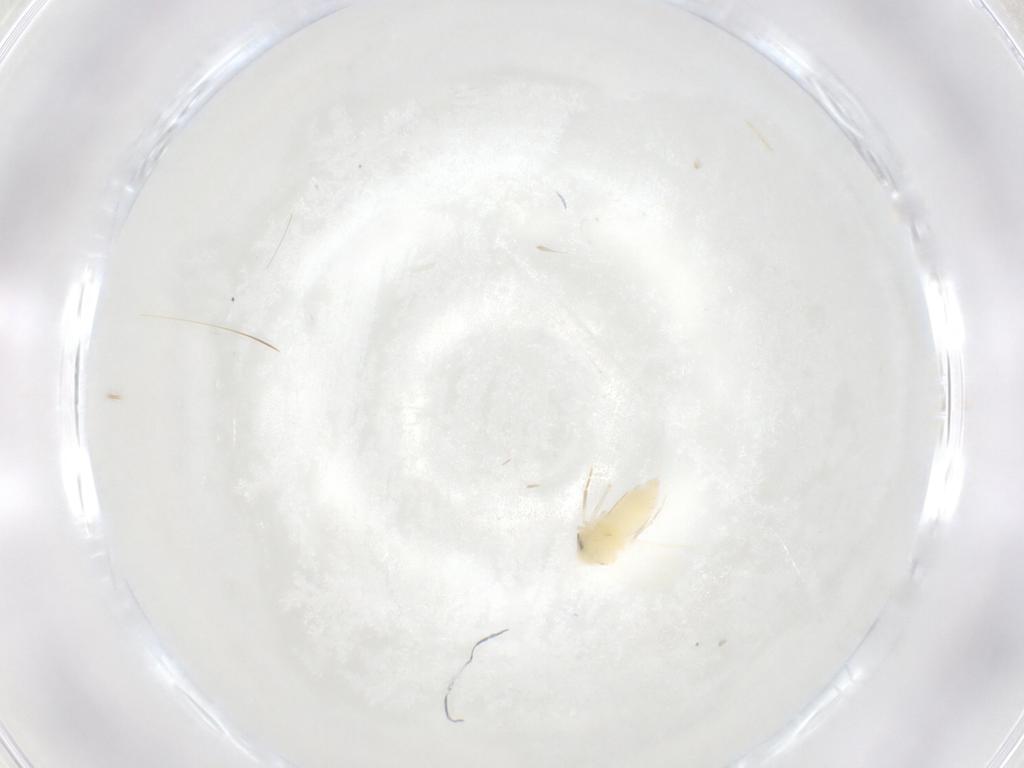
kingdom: Animalia
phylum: Arthropoda
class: Insecta
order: Hemiptera
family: Aleyrodidae
